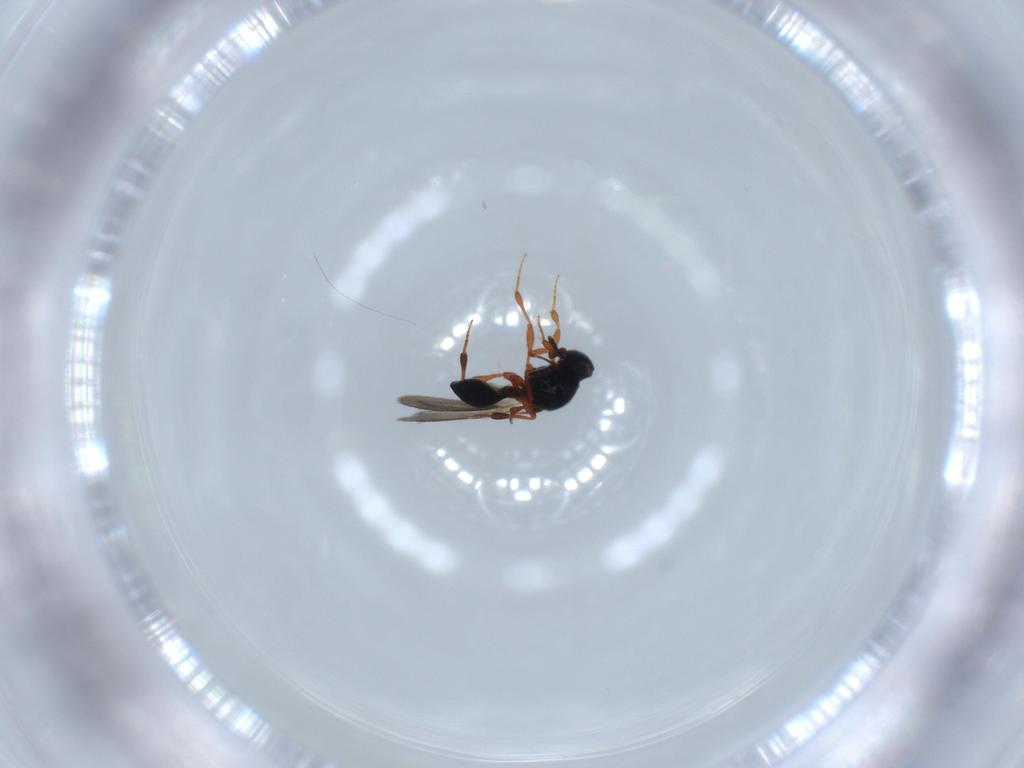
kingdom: Animalia
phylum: Arthropoda
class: Insecta
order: Hymenoptera
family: Platygastridae
